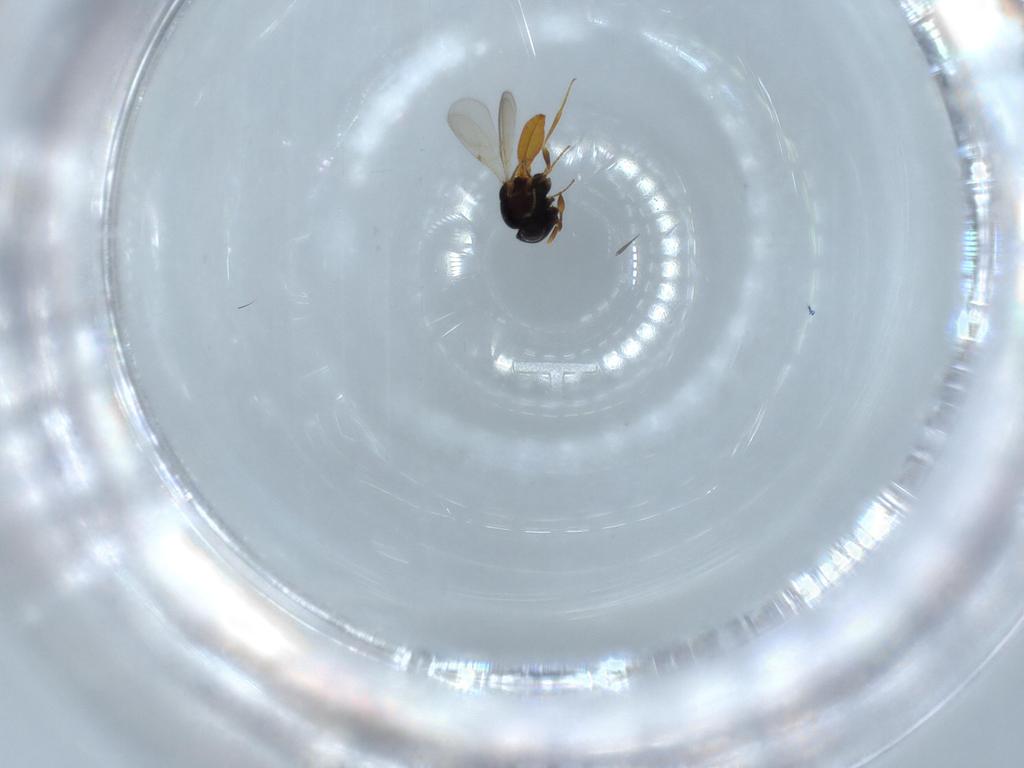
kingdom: Animalia
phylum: Arthropoda
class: Insecta
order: Hymenoptera
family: Scelionidae
